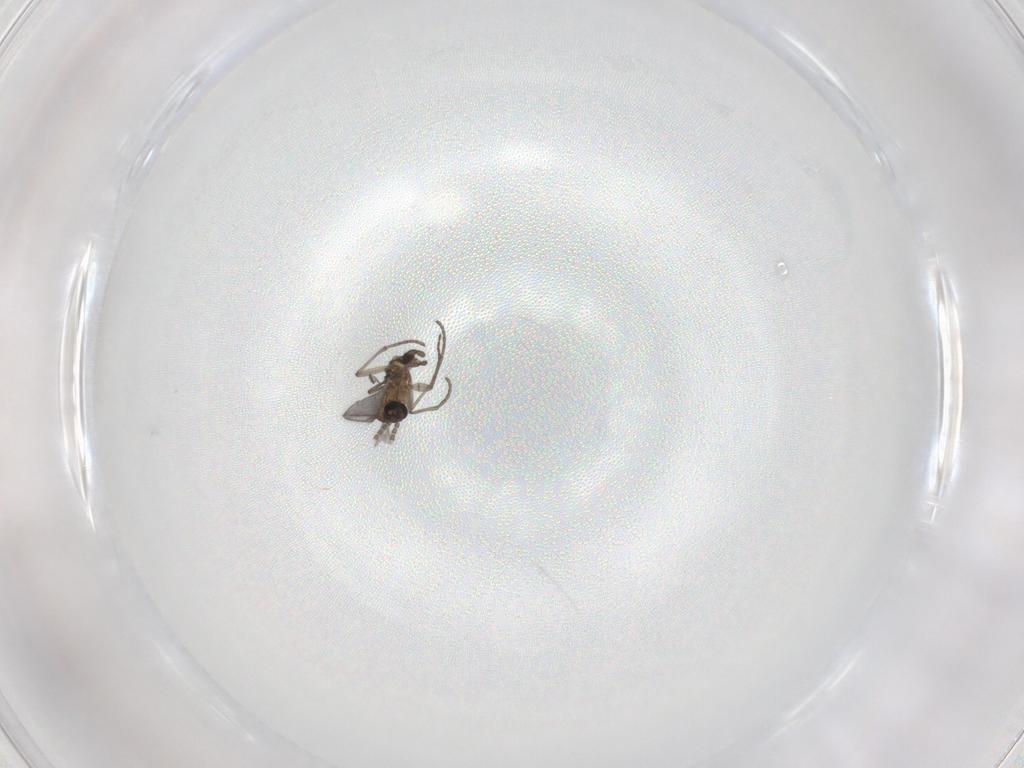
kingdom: Animalia
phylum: Arthropoda
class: Insecta
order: Diptera
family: Sciaridae
